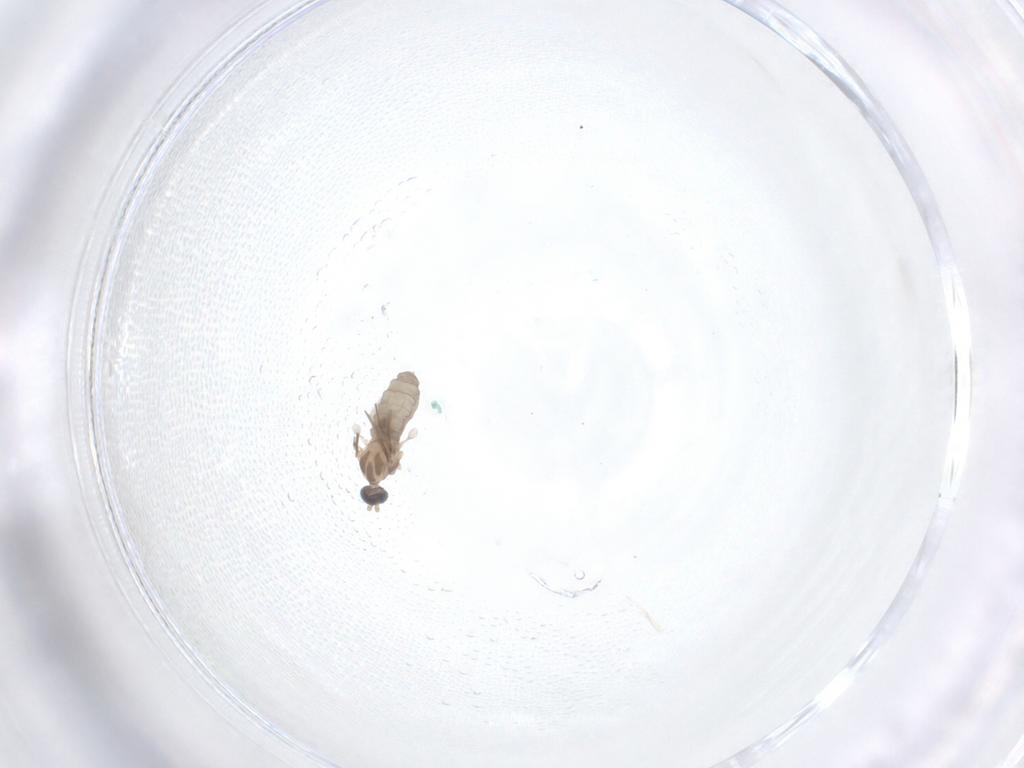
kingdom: Animalia
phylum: Arthropoda
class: Insecta
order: Diptera
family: Cecidomyiidae
